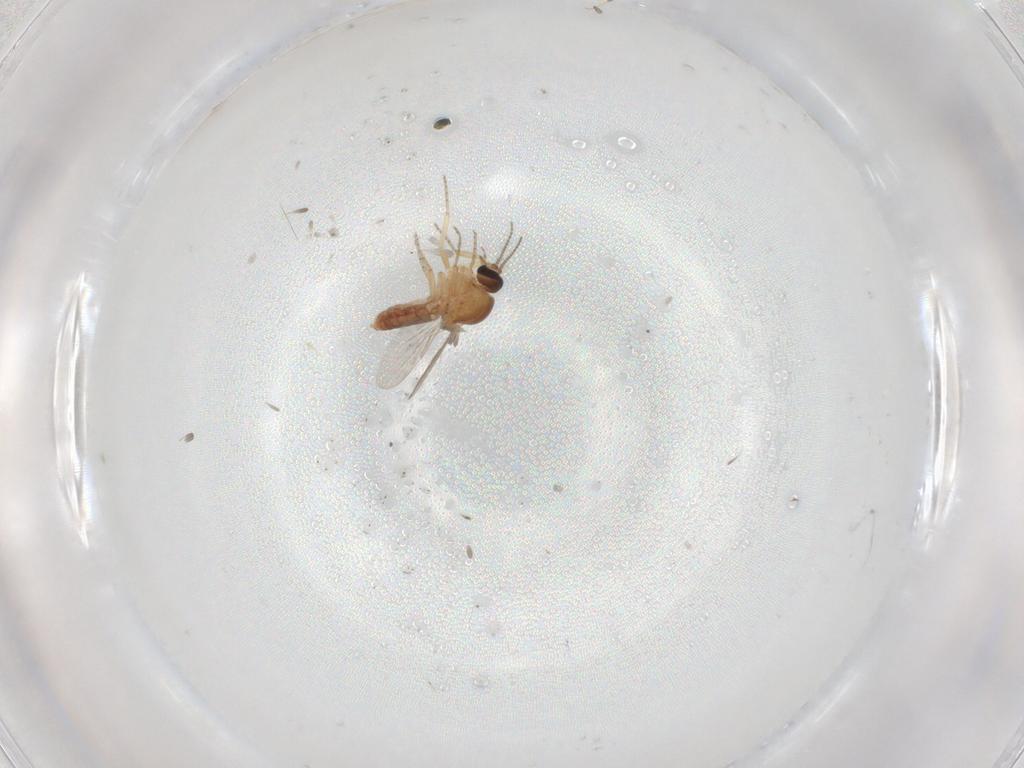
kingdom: Animalia
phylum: Arthropoda
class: Insecta
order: Diptera
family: Ceratopogonidae
